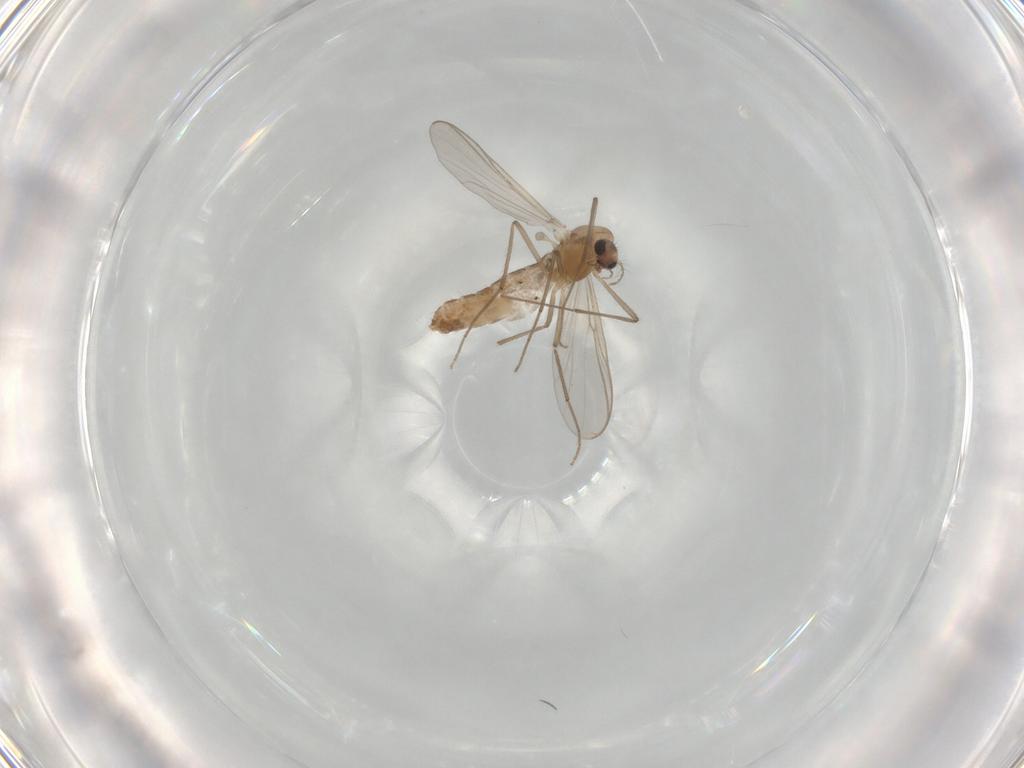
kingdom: Animalia
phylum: Arthropoda
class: Insecta
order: Diptera
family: Chironomidae
